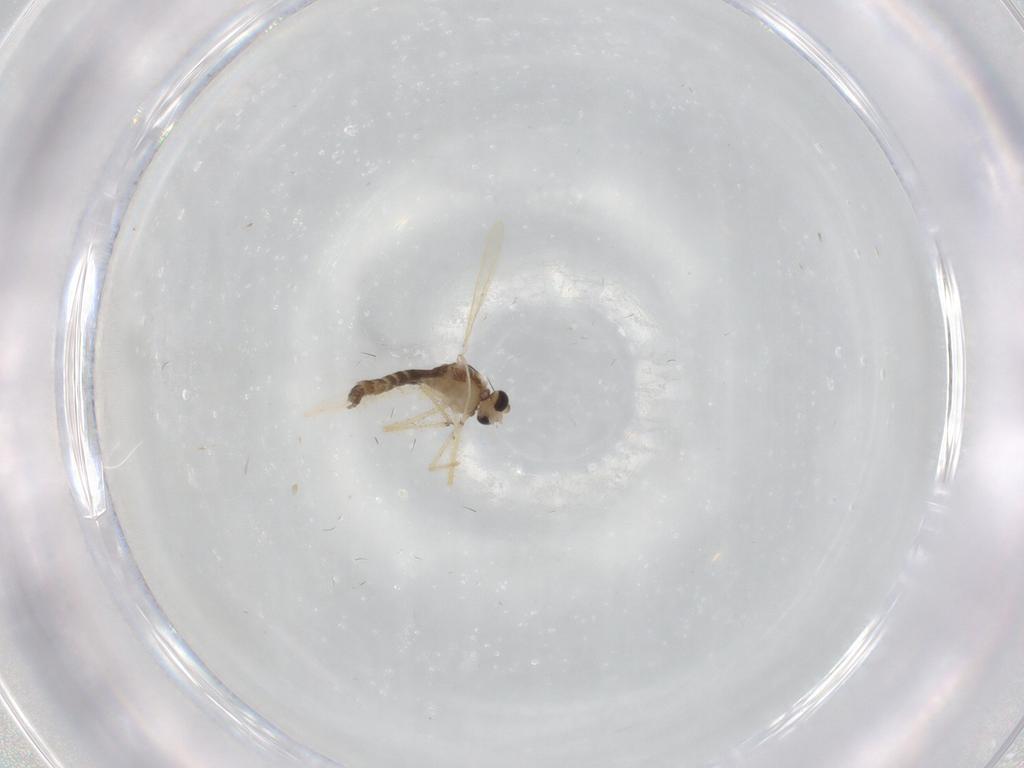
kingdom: Animalia
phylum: Arthropoda
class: Insecta
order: Diptera
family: Chironomidae
